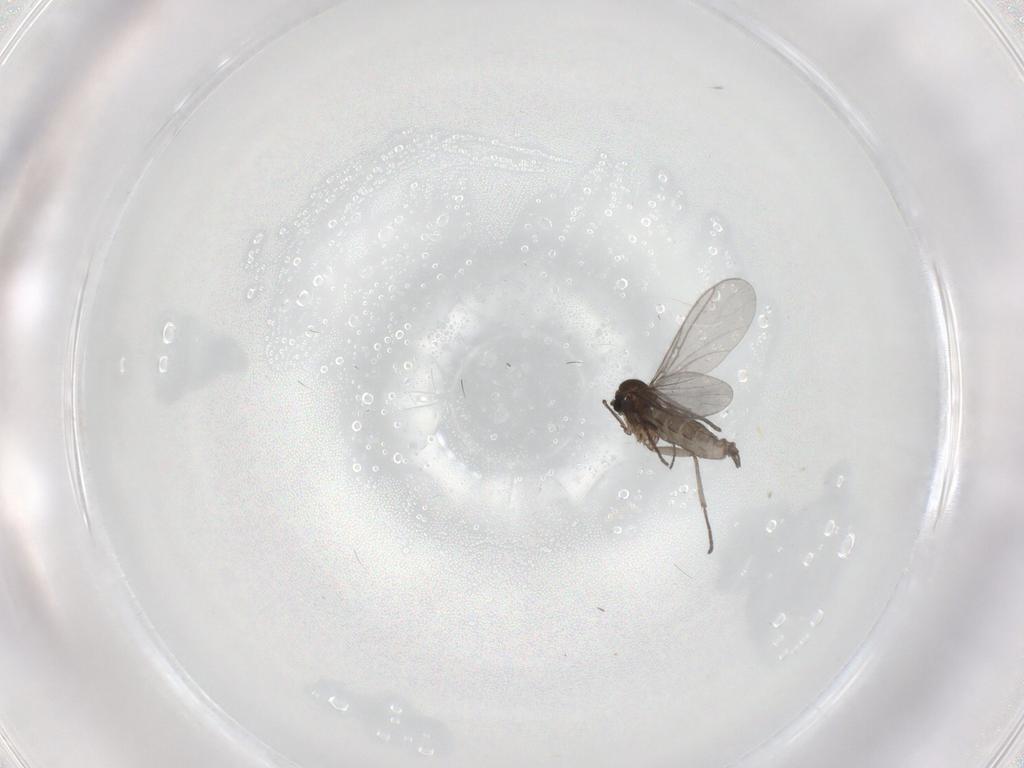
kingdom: Animalia
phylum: Arthropoda
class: Insecta
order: Diptera
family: Sciaridae
